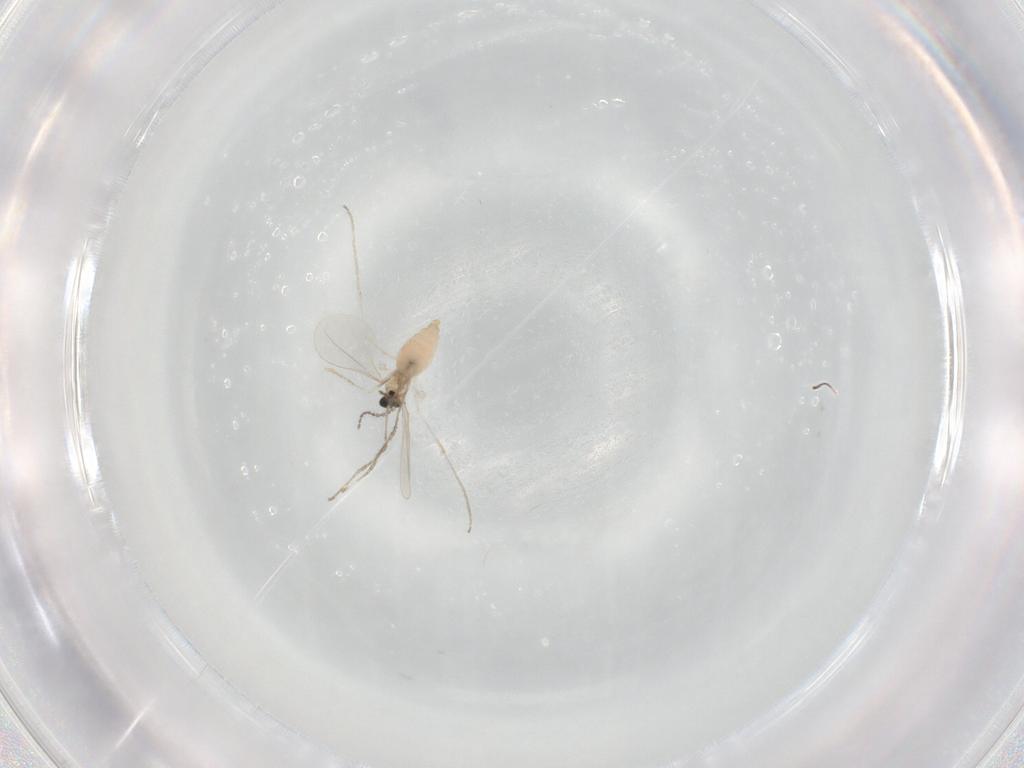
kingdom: Animalia
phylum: Arthropoda
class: Insecta
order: Diptera
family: Cecidomyiidae
